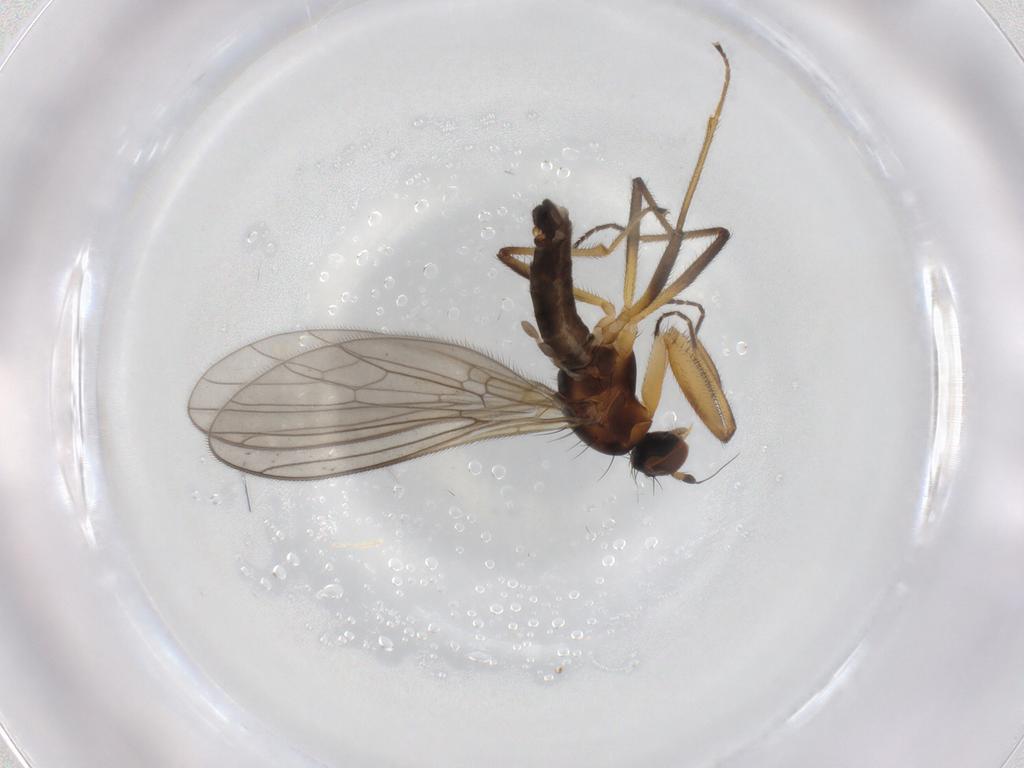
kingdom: Animalia
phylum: Arthropoda
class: Insecta
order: Diptera
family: Empididae
